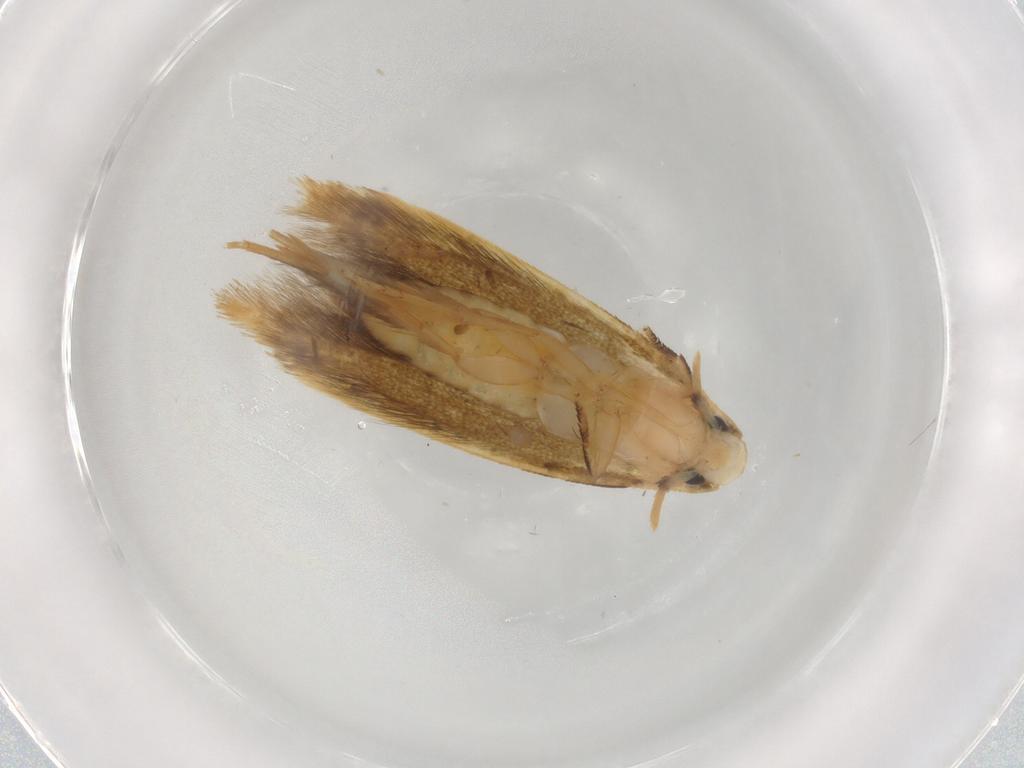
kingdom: Animalia
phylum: Arthropoda
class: Insecta
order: Lepidoptera
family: Tineidae
